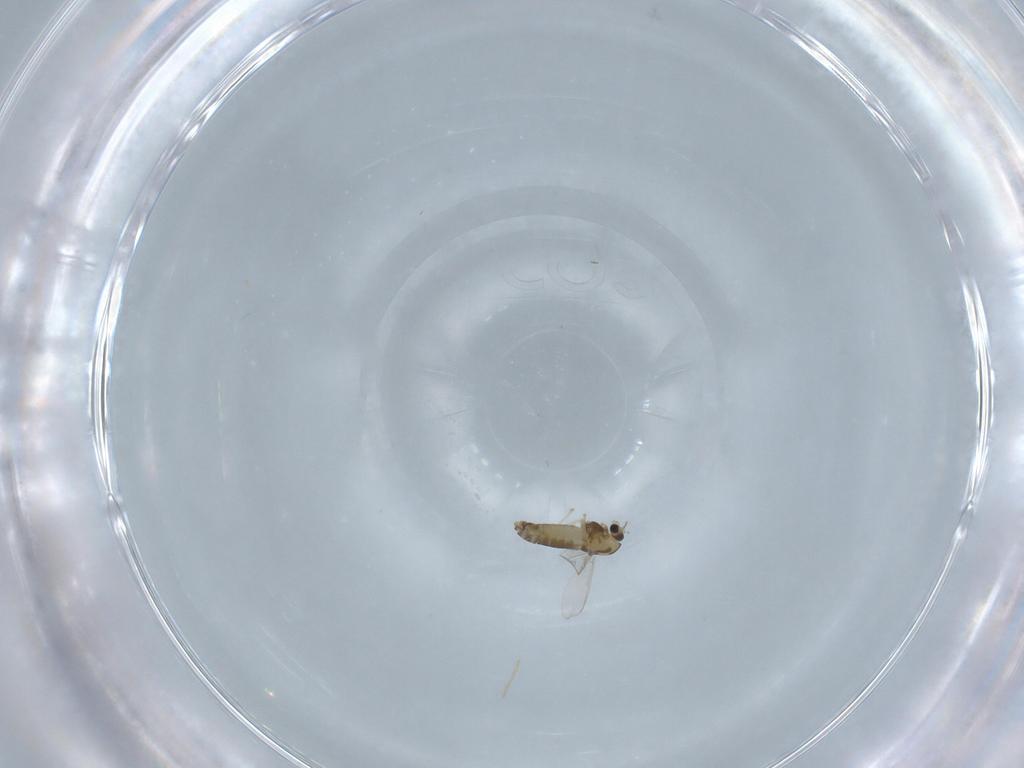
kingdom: Animalia
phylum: Arthropoda
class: Insecta
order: Diptera
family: Chironomidae
